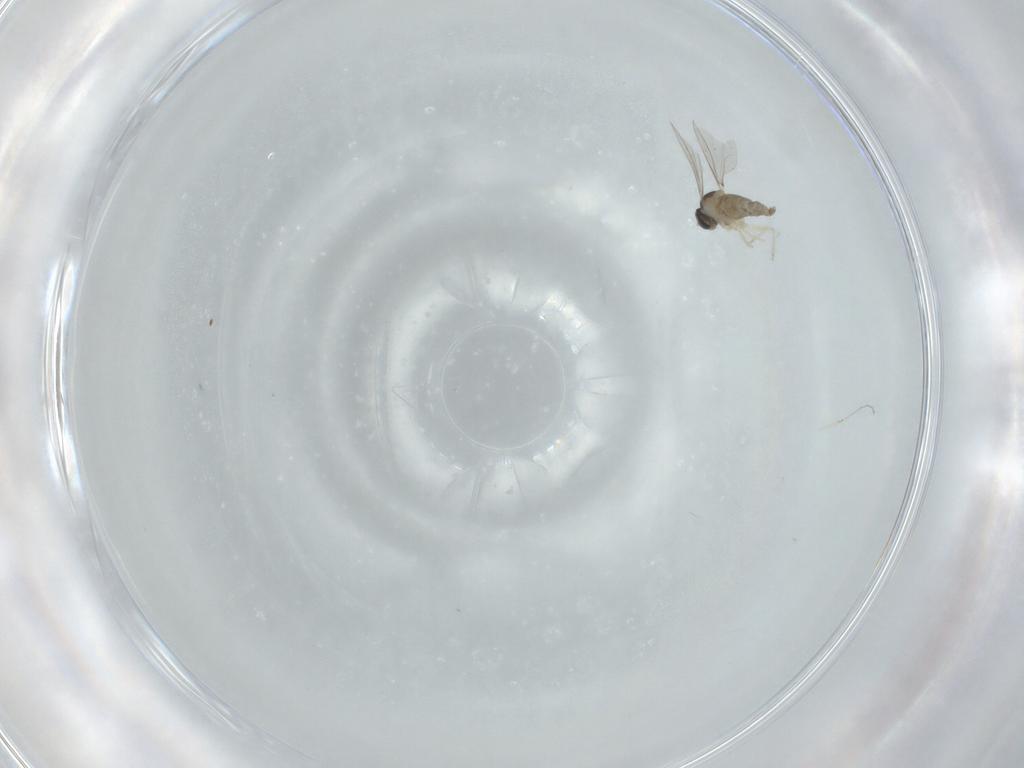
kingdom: Animalia
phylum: Arthropoda
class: Insecta
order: Diptera
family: Cecidomyiidae
